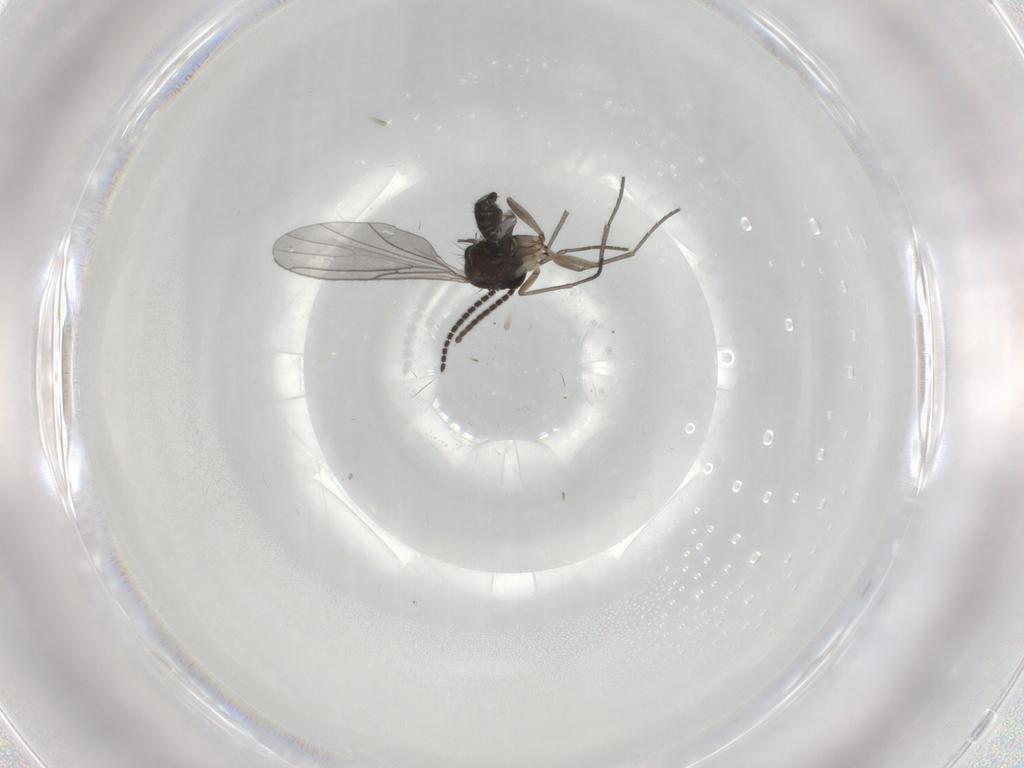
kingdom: Animalia
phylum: Arthropoda
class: Insecta
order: Diptera
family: Sciaridae
